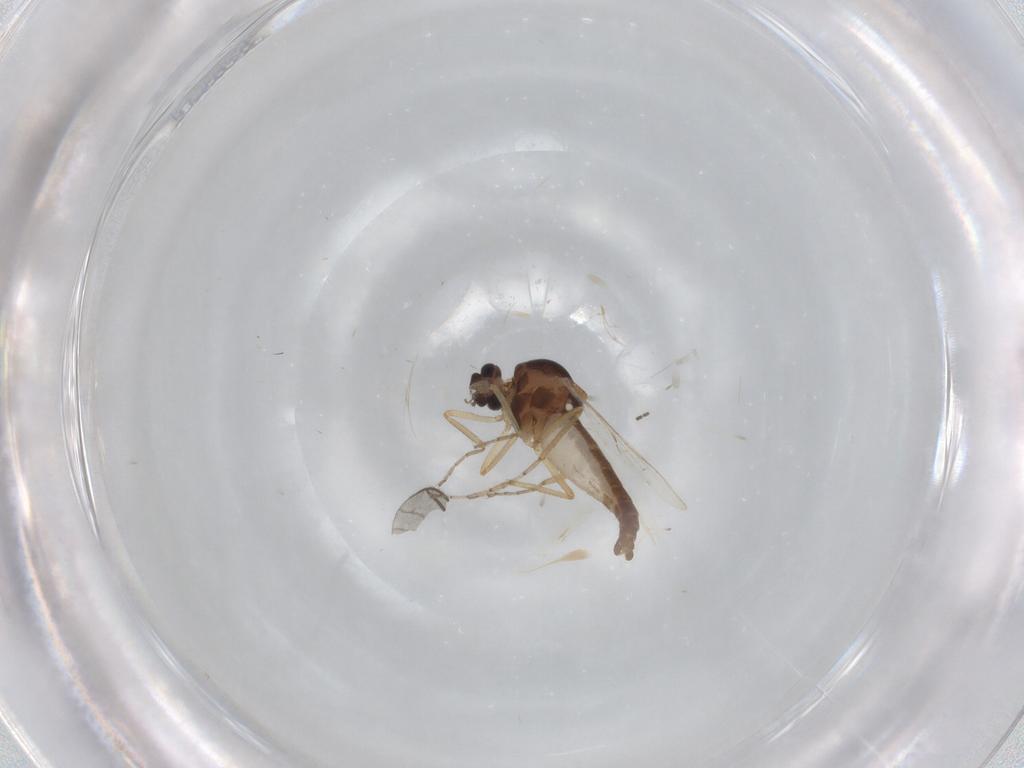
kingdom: Animalia
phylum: Arthropoda
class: Insecta
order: Diptera
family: Ceratopogonidae
